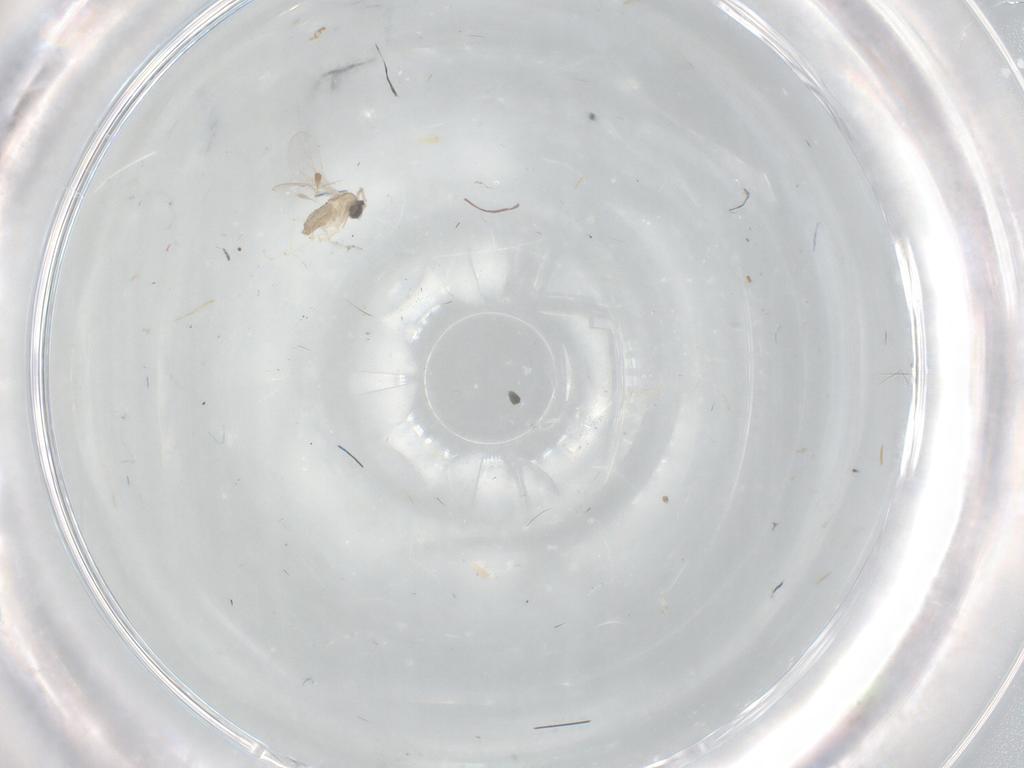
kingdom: Animalia
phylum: Arthropoda
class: Insecta
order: Diptera
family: Cecidomyiidae
